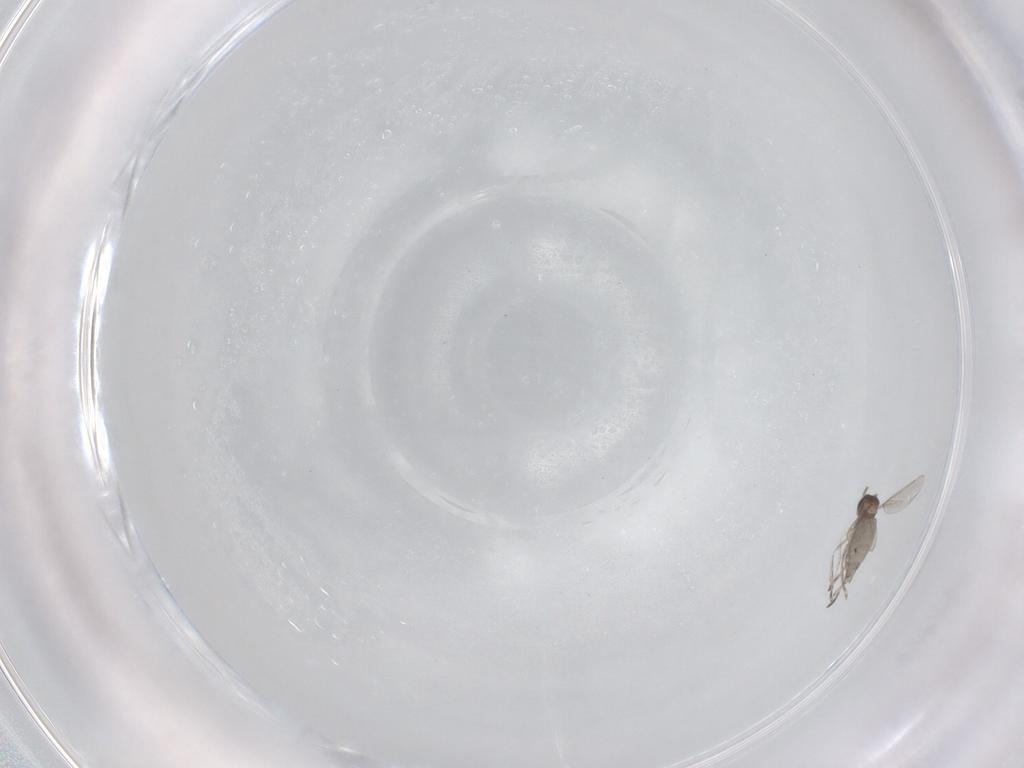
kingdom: Animalia
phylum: Arthropoda
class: Insecta
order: Diptera
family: Cecidomyiidae
